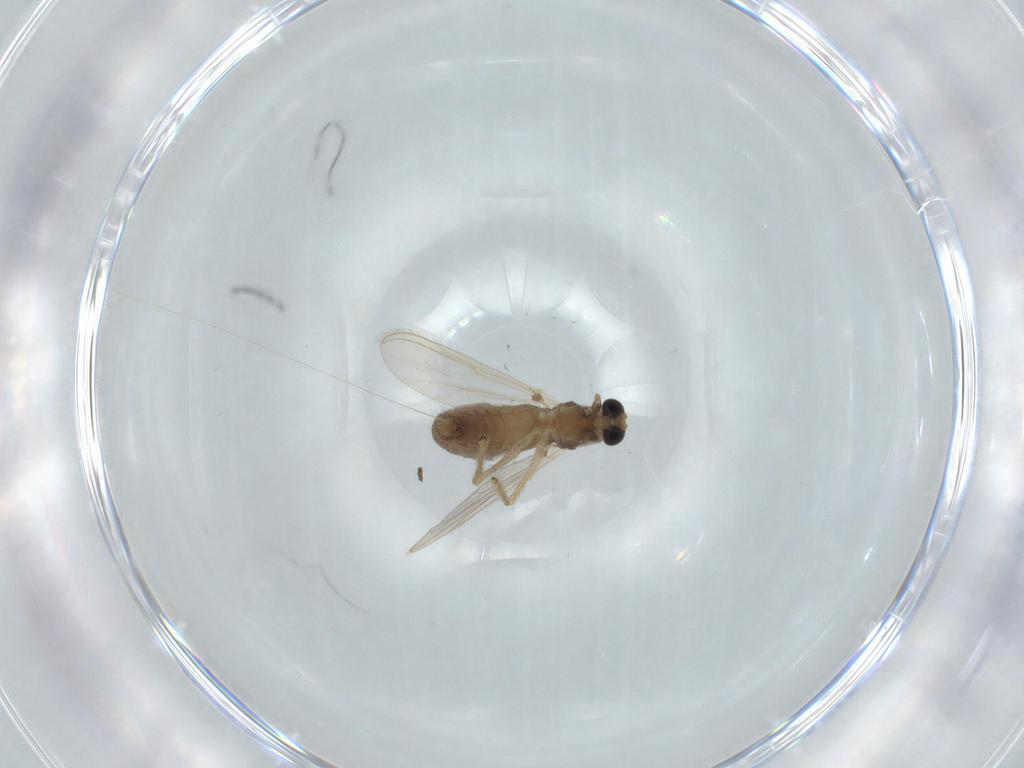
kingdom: Animalia
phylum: Arthropoda
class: Insecta
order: Diptera
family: Chironomidae
